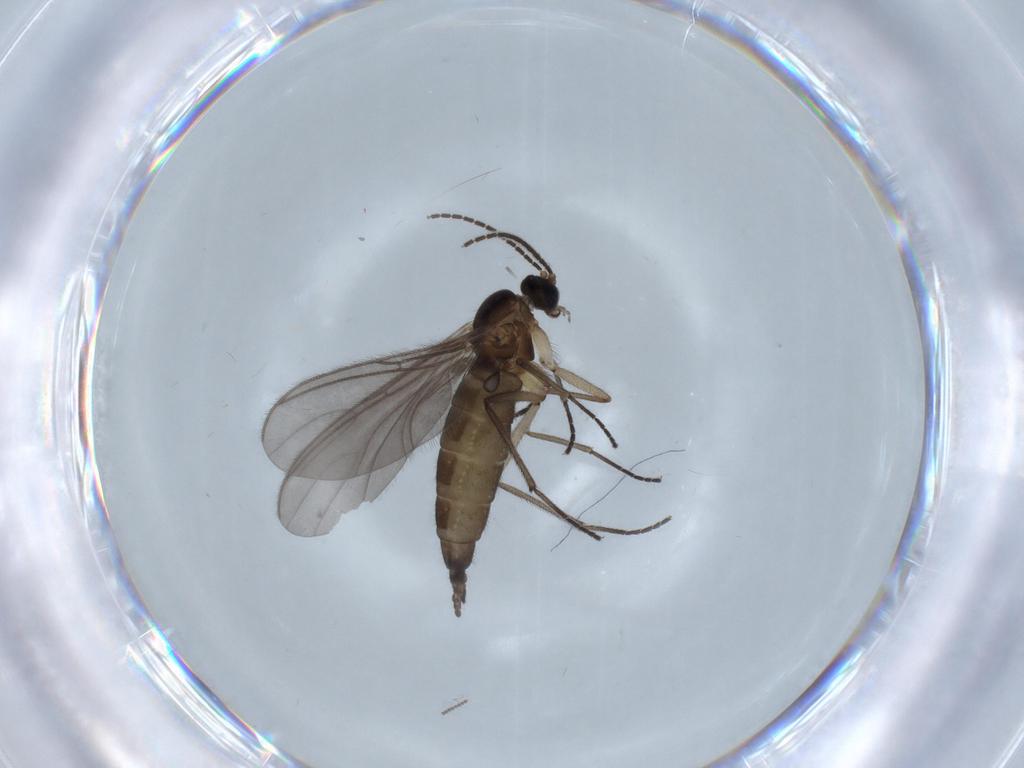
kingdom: Animalia
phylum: Arthropoda
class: Insecta
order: Diptera
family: Sciaridae
